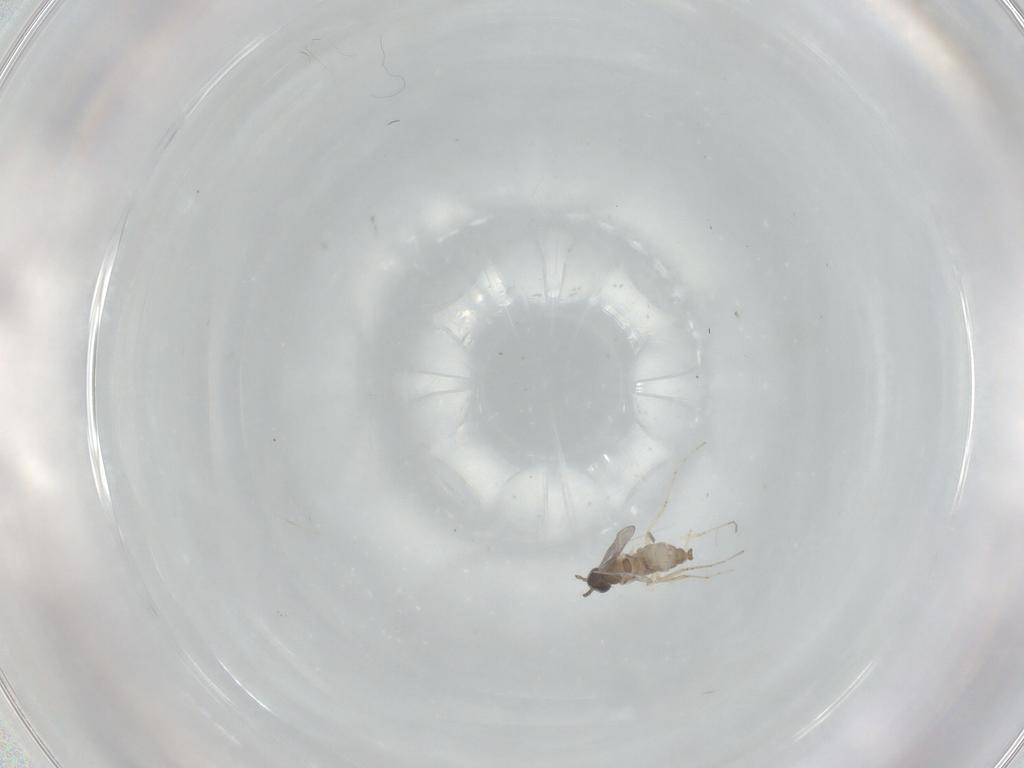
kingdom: Animalia
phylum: Arthropoda
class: Insecta
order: Diptera
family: Cecidomyiidae
